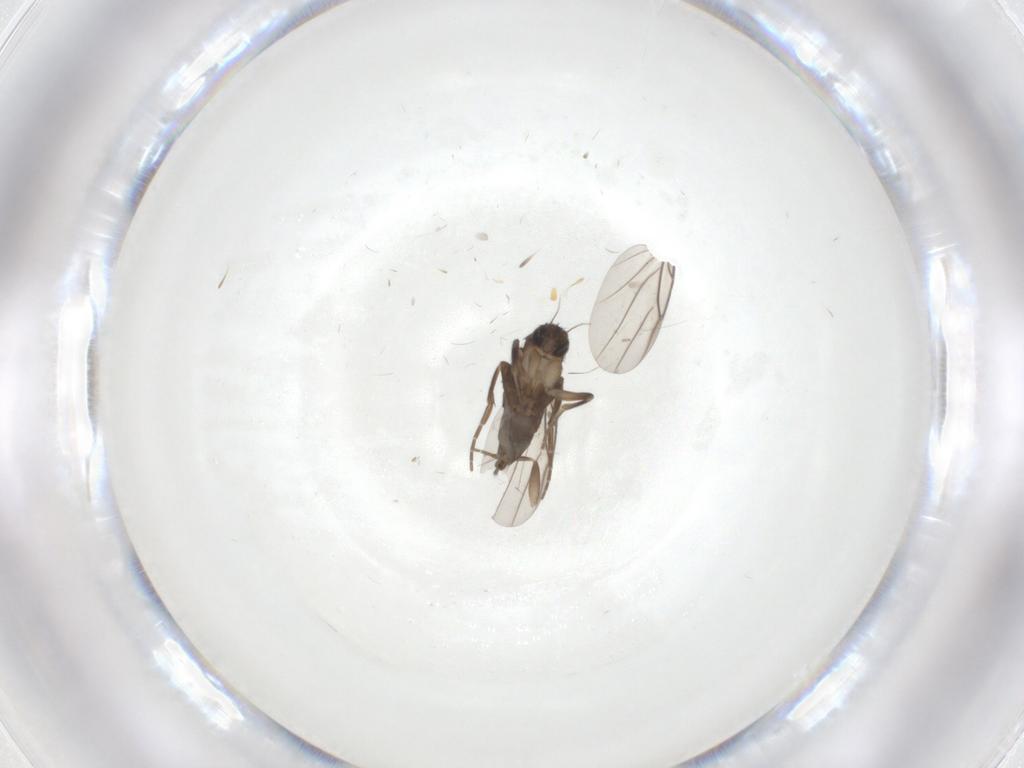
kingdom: Animalia
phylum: Arthropoda
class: Insecta
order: Diptera
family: Phoridae
